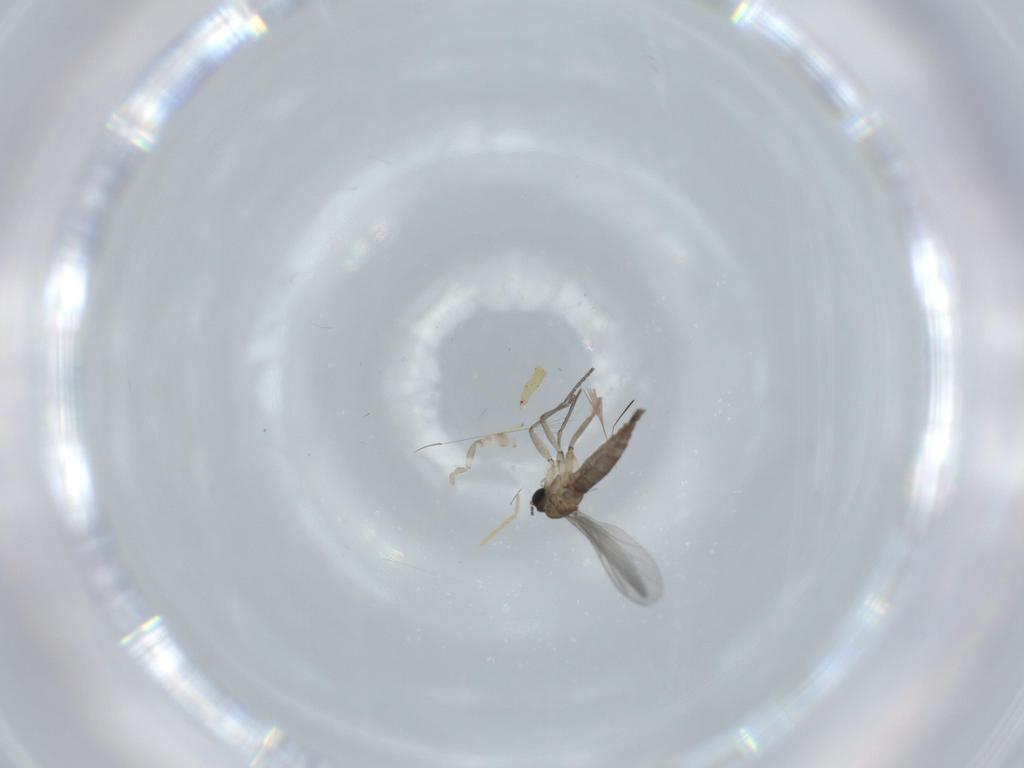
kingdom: Animalia
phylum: Arthropoda
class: Insecta
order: Diptera
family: Sciaridae
